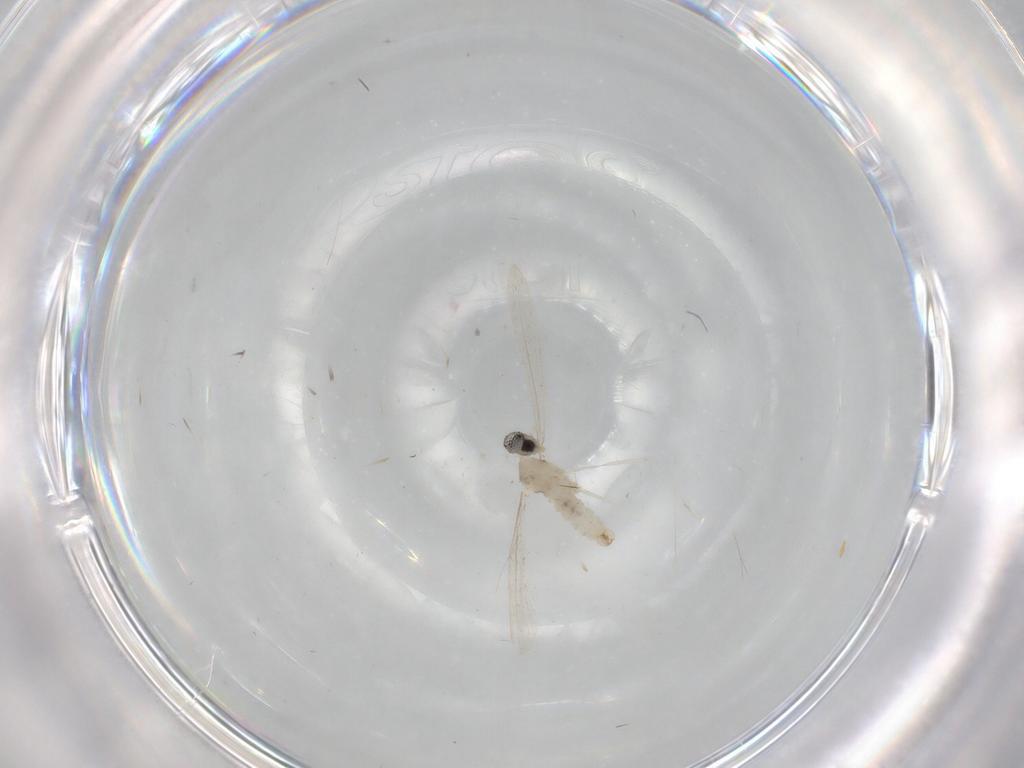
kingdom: Animalia
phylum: Arthropoda
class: Insecta
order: Diptera
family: Cecidomyiidae
